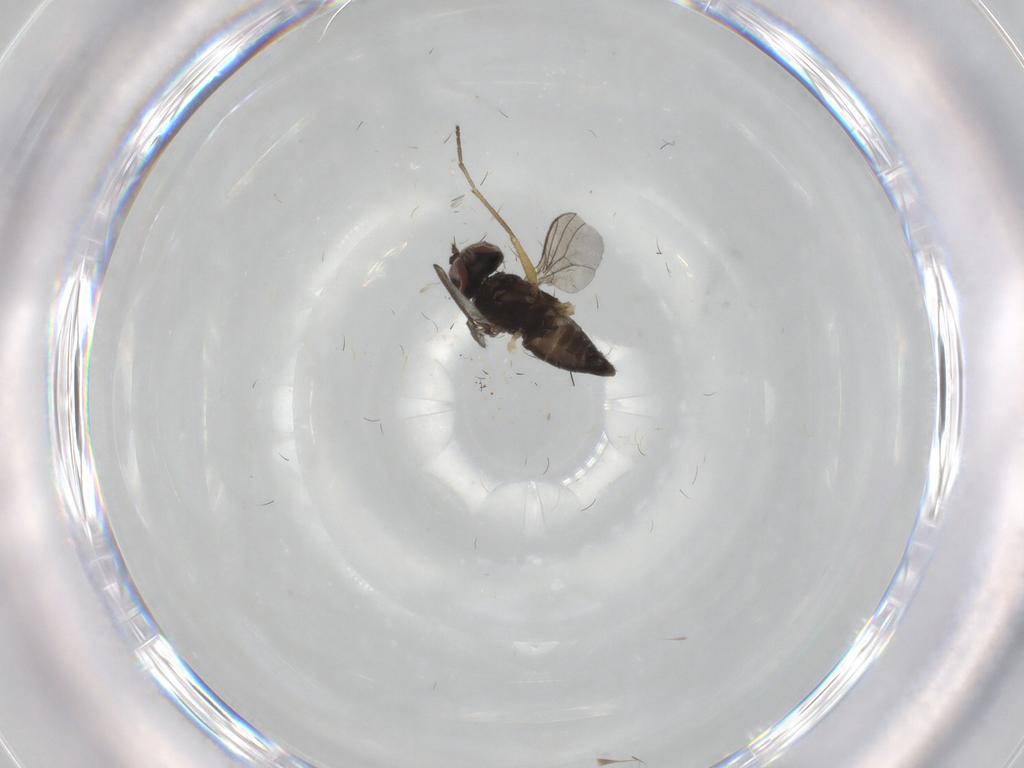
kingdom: Animalia
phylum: Arthropoda
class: Insecta
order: Diptera
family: Dolichopodidae
